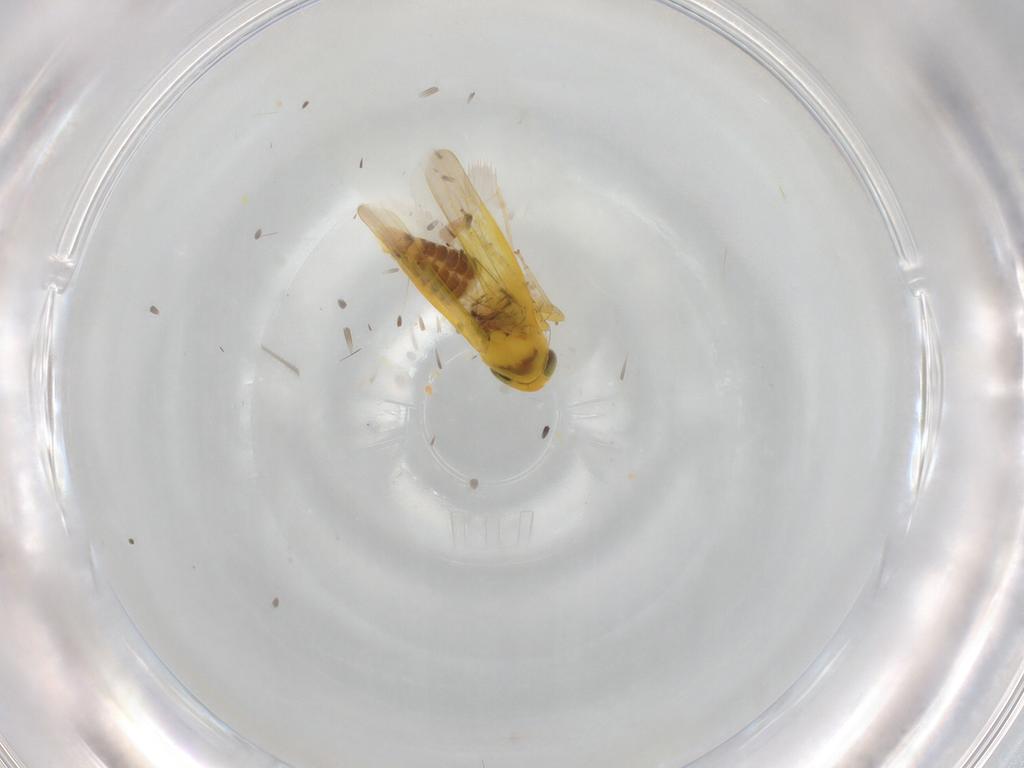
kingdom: Animalia
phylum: Arthropoda
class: Insecta
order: Hemiptera
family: Cicadellidae
